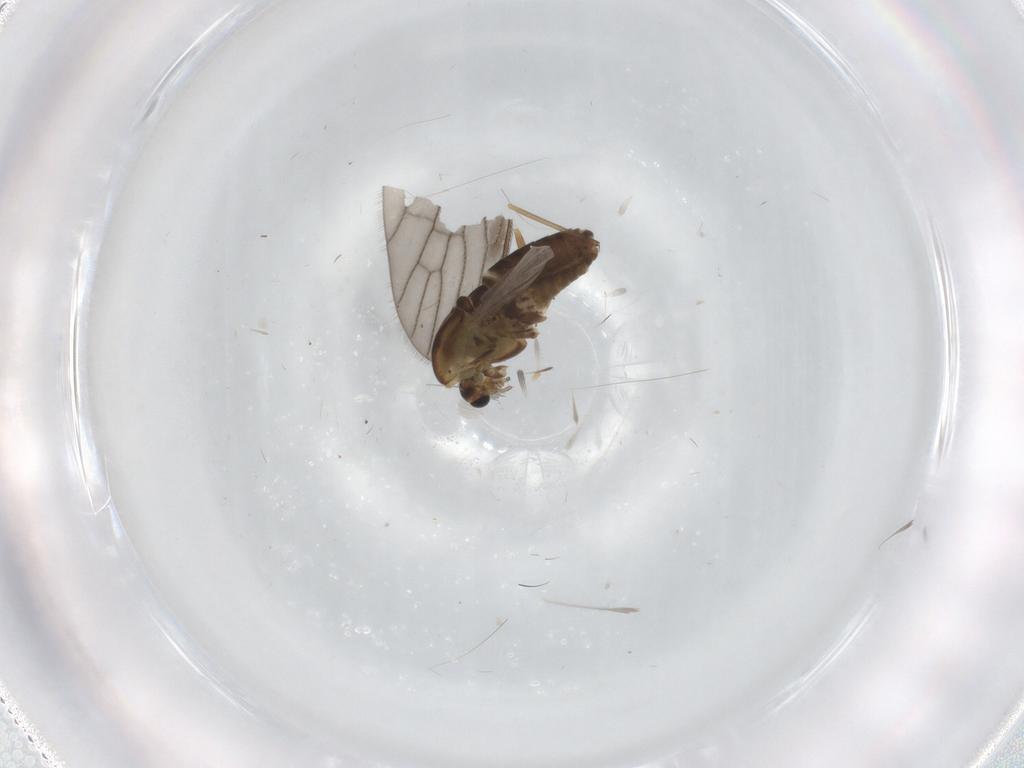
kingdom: Animalia
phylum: Arthropoda
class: Insecta
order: Diptera
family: Chironomidae
